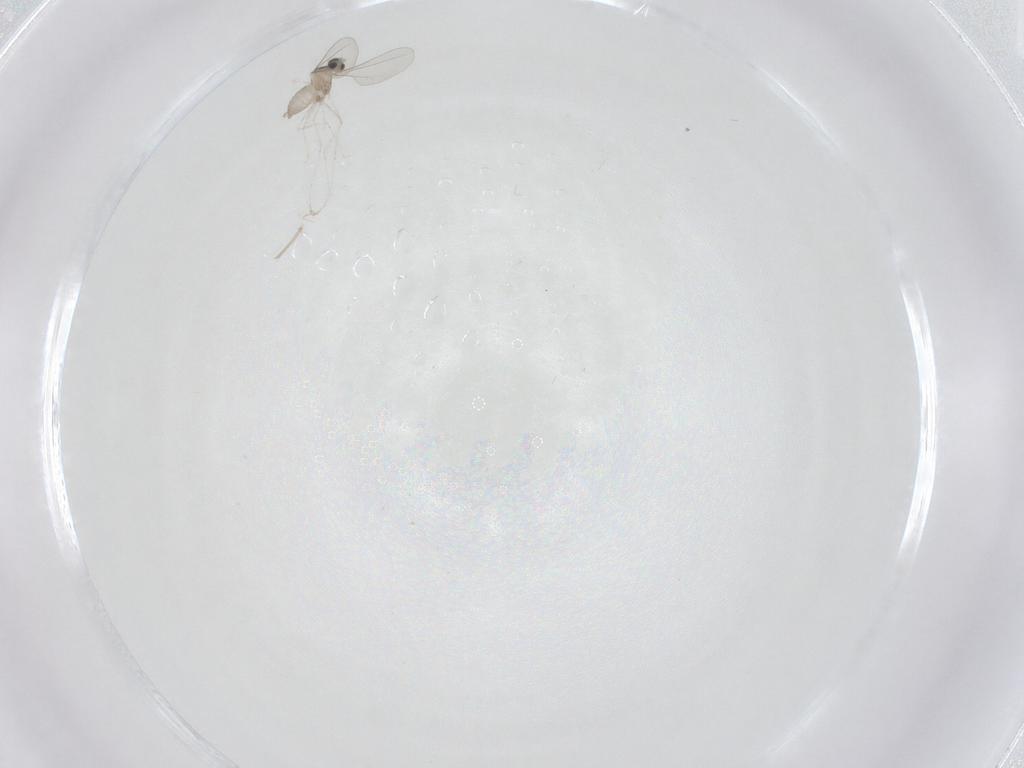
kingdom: Animalia
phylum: Arthropoda
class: Insecta
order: Diptera
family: Cecidomyiidae
